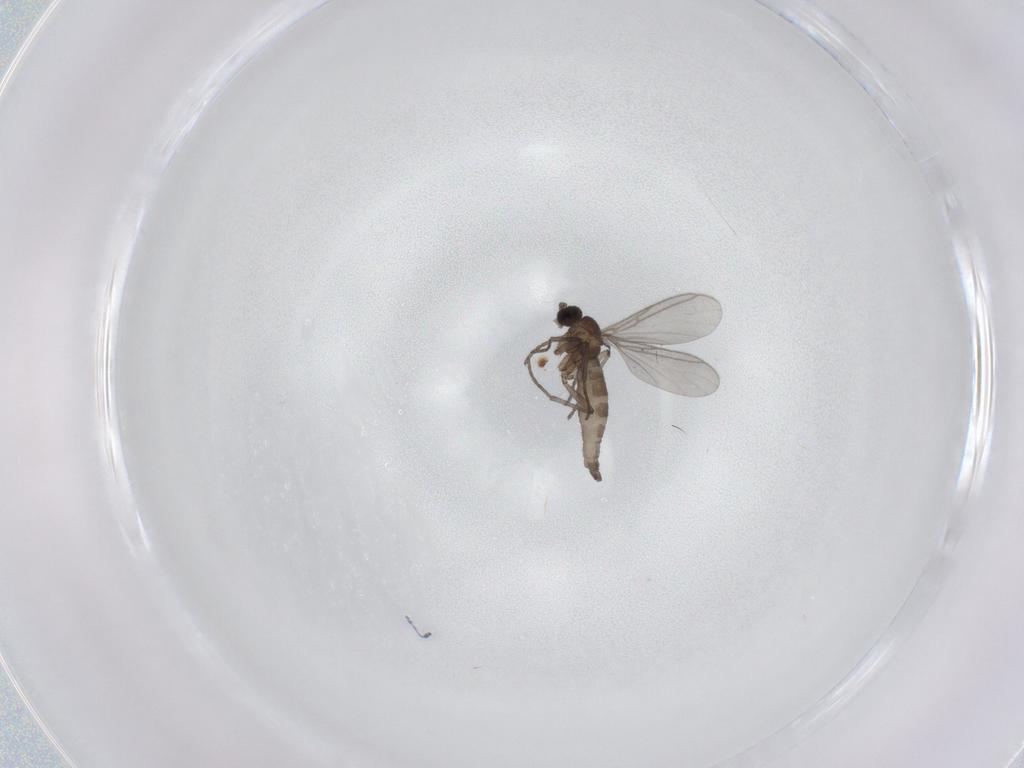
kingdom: Animalia
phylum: Arthropoda
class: Insecta
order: Diptera
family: Sciaridae
